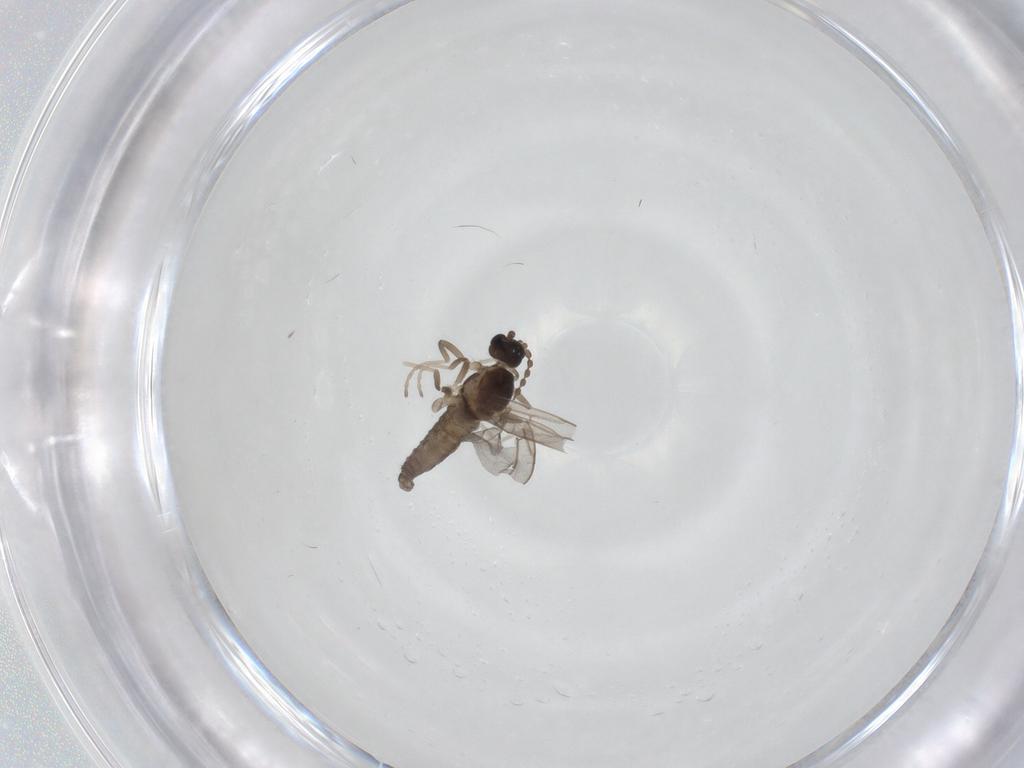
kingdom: Animalia
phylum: Arthropoda
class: Insecta
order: Diptera
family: Cecidomyiidae
